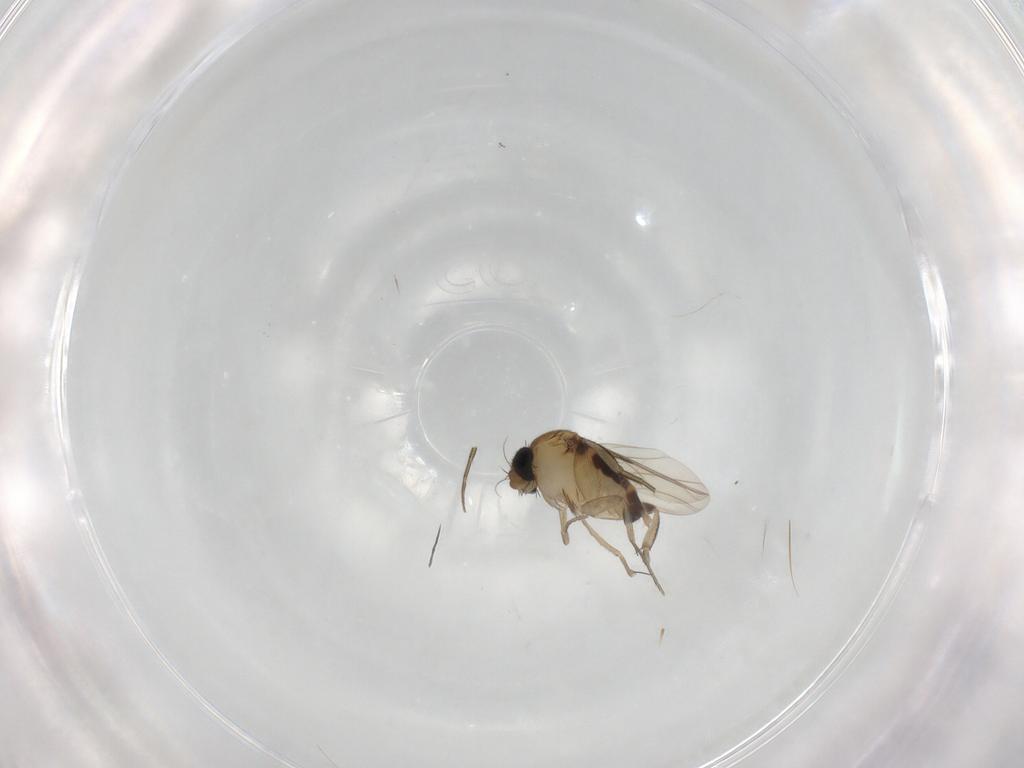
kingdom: Animalia
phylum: Arthropoda
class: Insecta
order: Diptera
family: Phoridae
